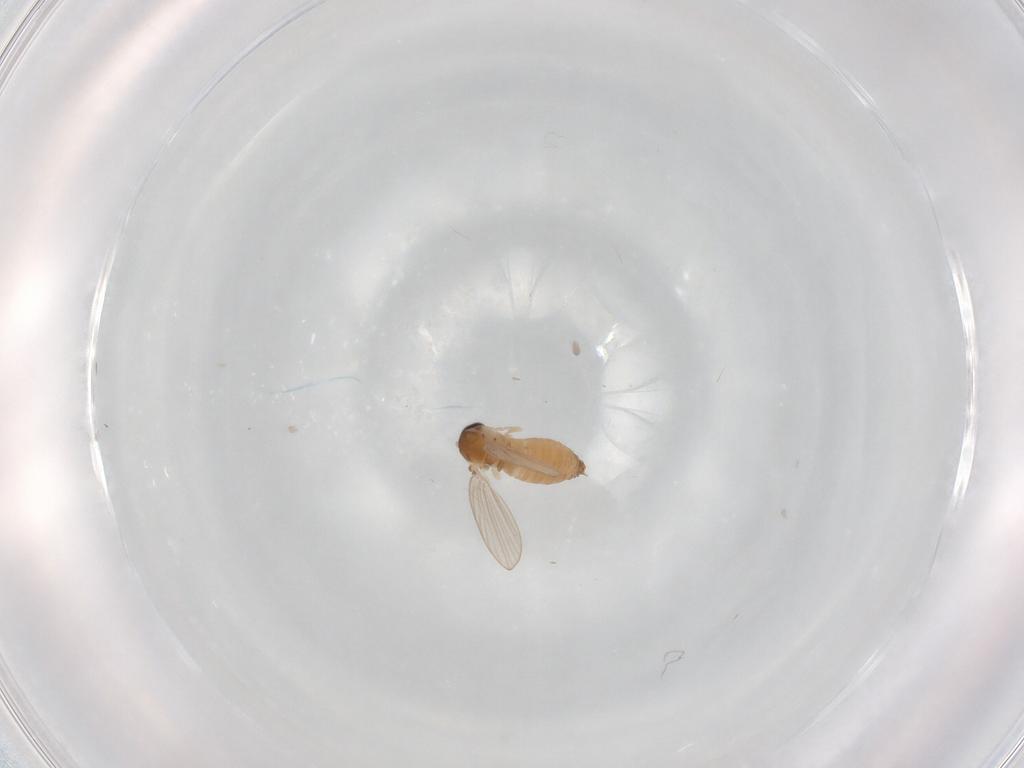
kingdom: Animalia
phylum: Arthropoda
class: Insecta
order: Diptera
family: Psychodidae
